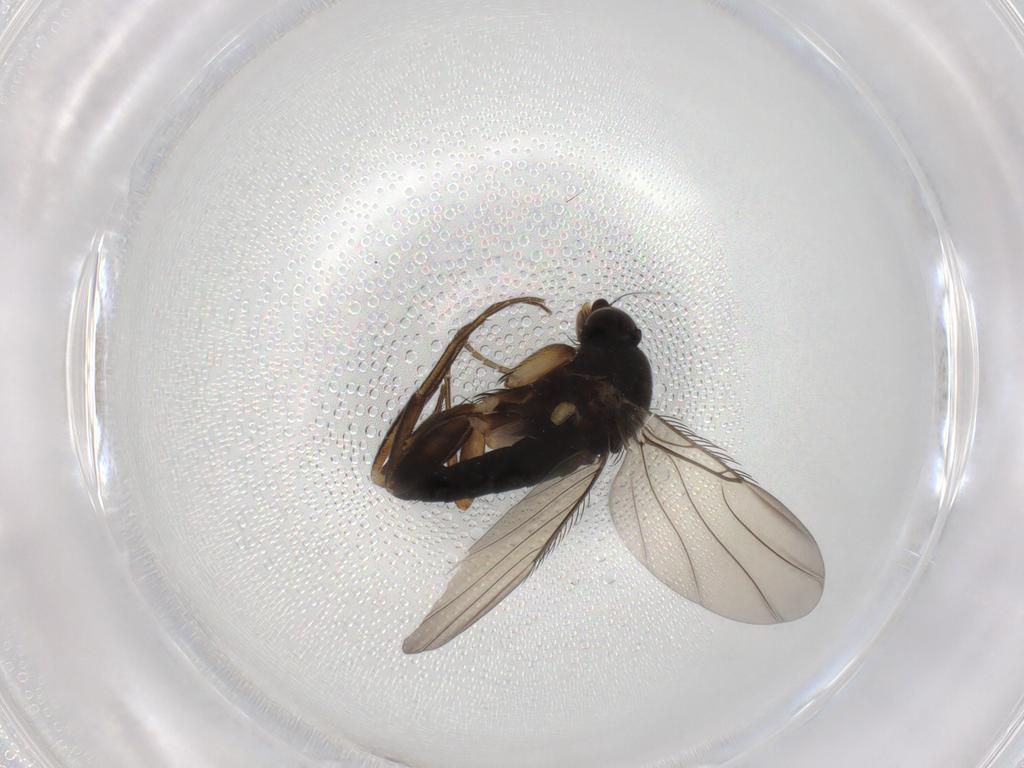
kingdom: Animalia
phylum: Arthropoda
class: Insecta
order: Diptera
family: Phoridae
